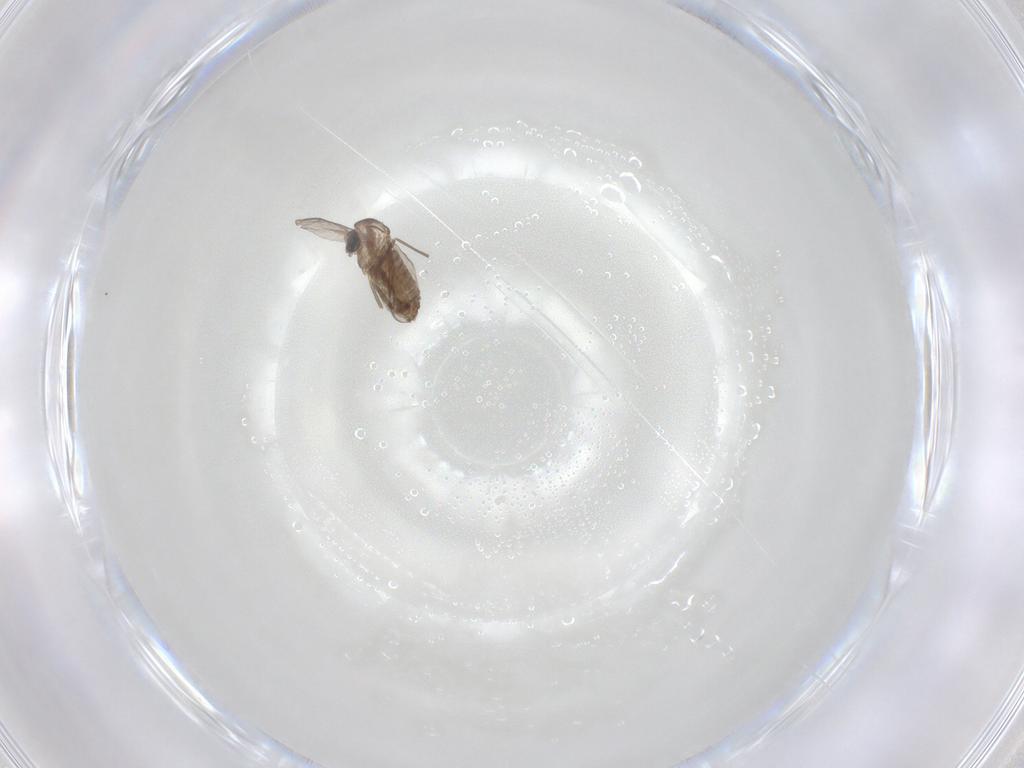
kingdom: Animalia
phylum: Arthropoda
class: Insecta
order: Diptera
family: Chironomidae
